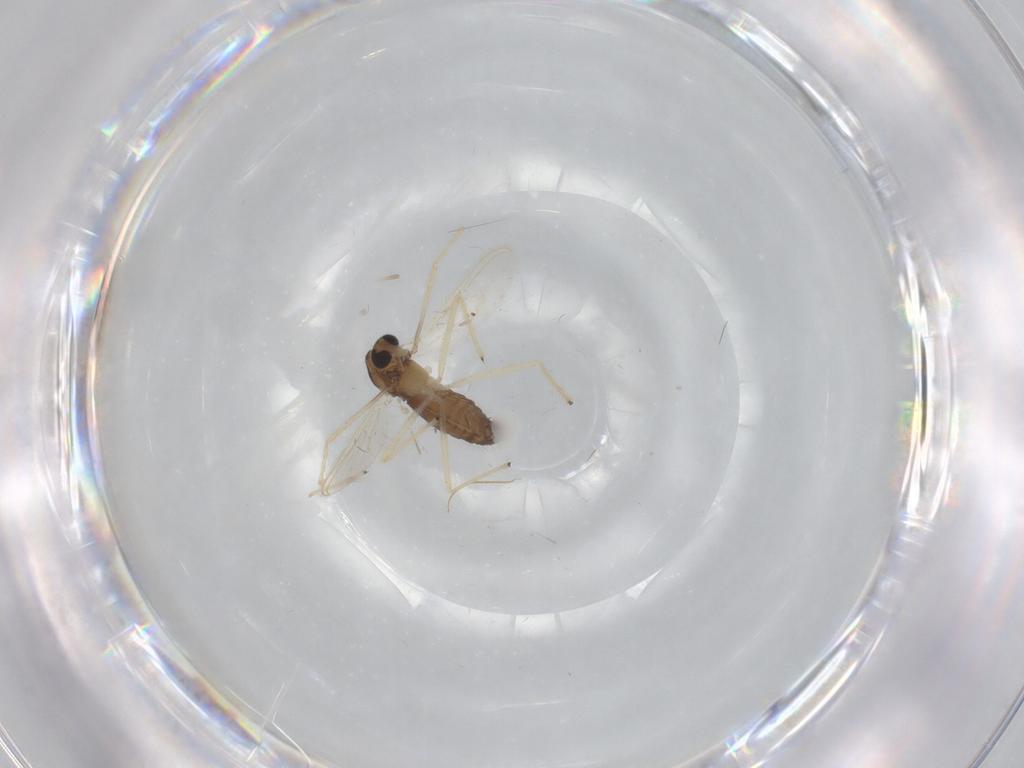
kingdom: Animalia
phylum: Arthropoda
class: Insecta
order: Diptera
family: Chironomidae
